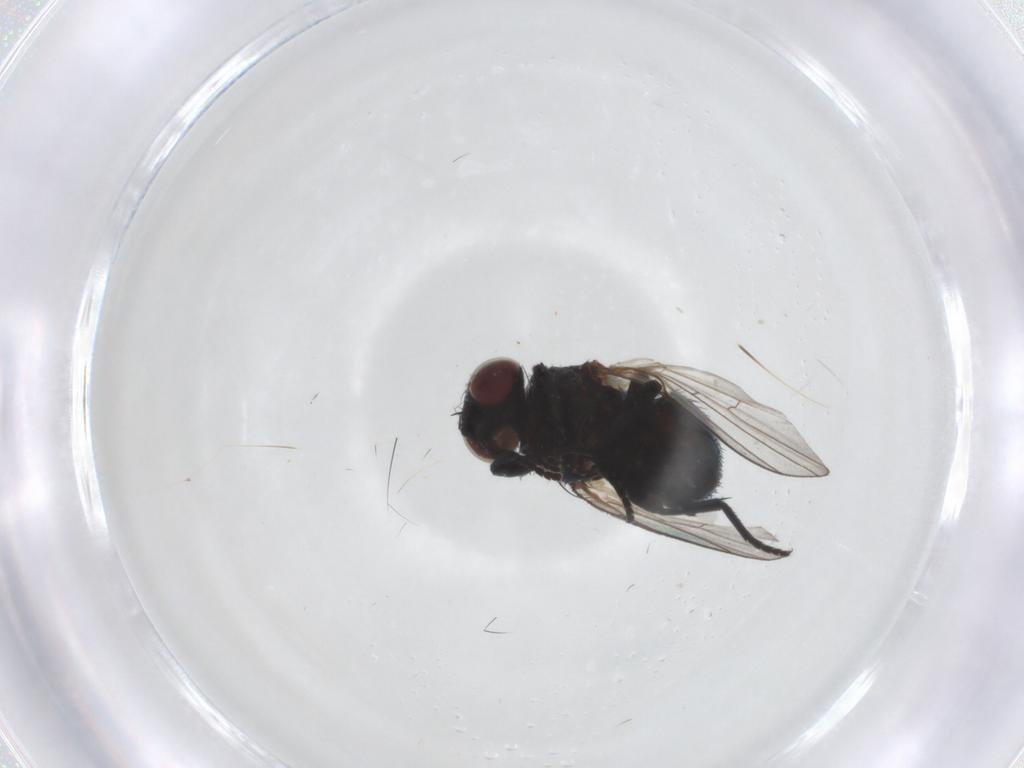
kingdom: Animalia
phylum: Arthropoda
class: Insecta
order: Diptera
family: Agromyzidae
